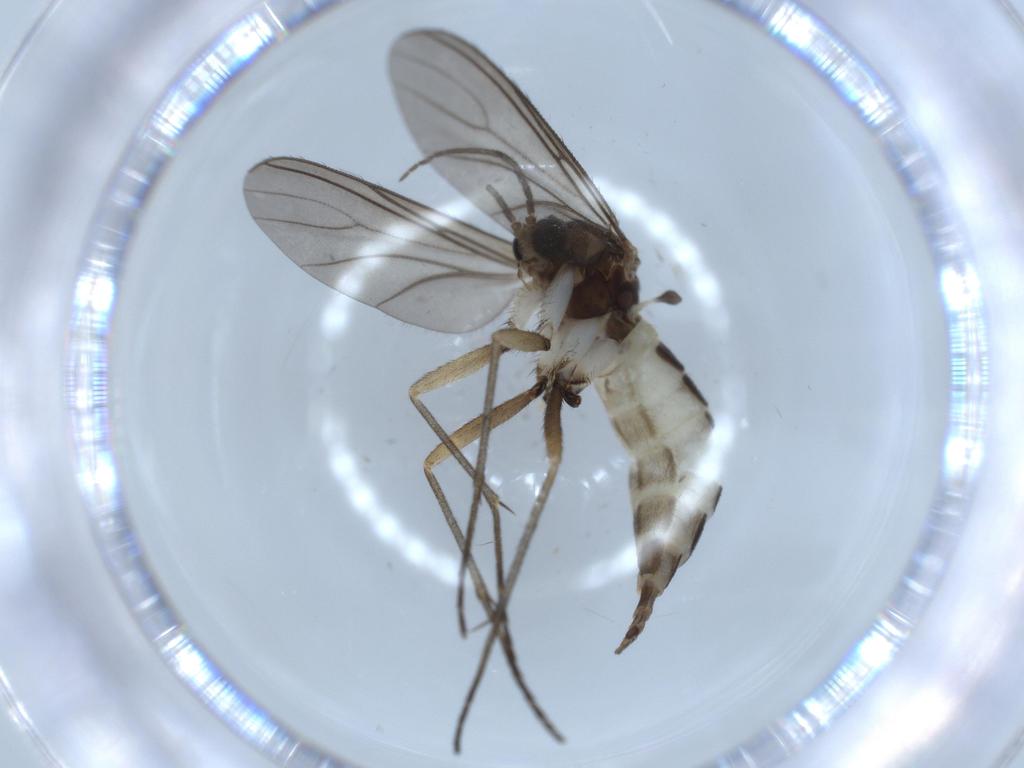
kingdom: Animalia
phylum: Arthropoda
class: Insecta
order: Diptera
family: Sciaridae
